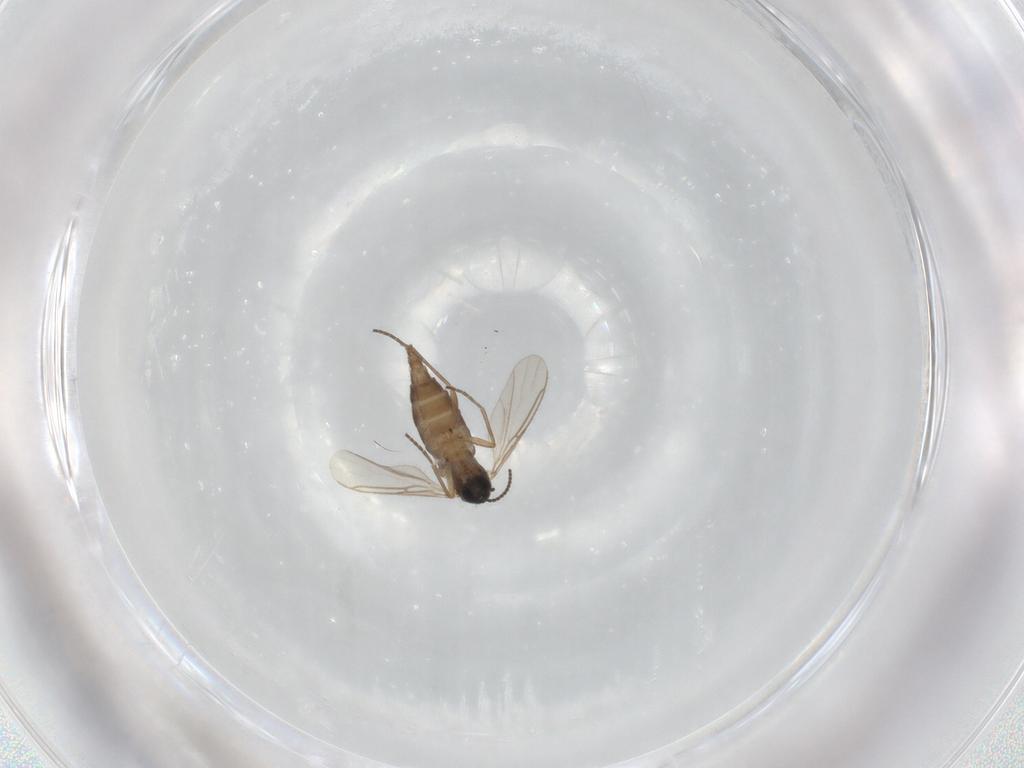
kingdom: Animalia
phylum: Arthropoda
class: Insecta
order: Diptera
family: Sciaridae
